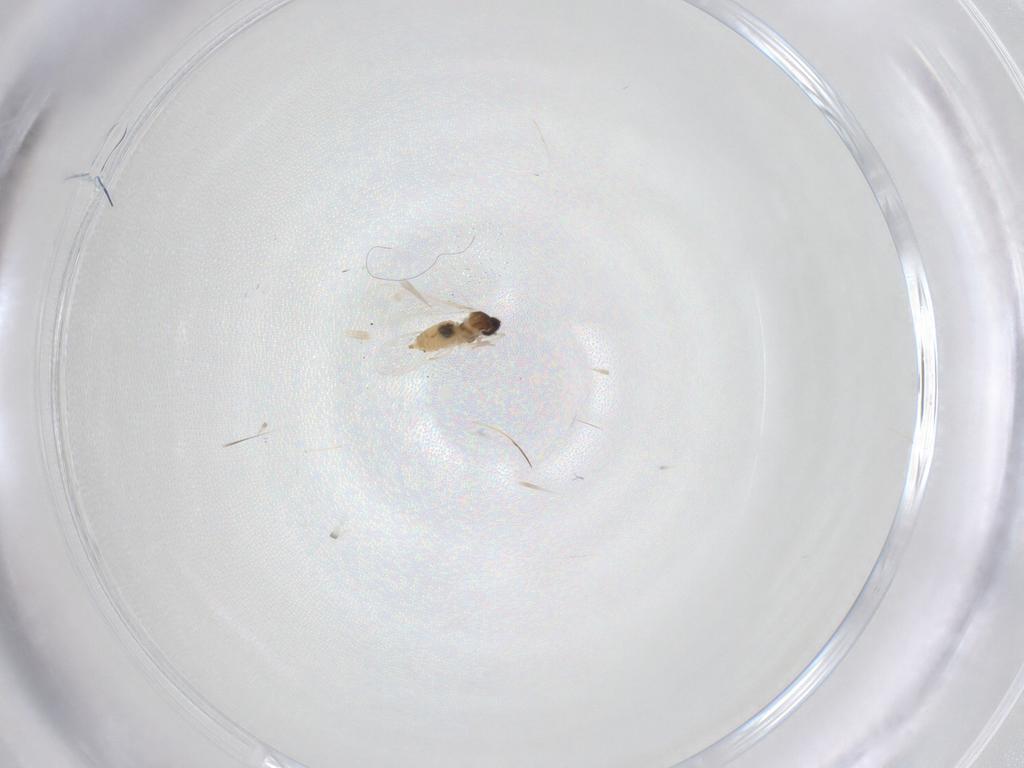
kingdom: Animalia
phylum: Arthropoda
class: Insecta
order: Diptera
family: Cecidomyiidae
